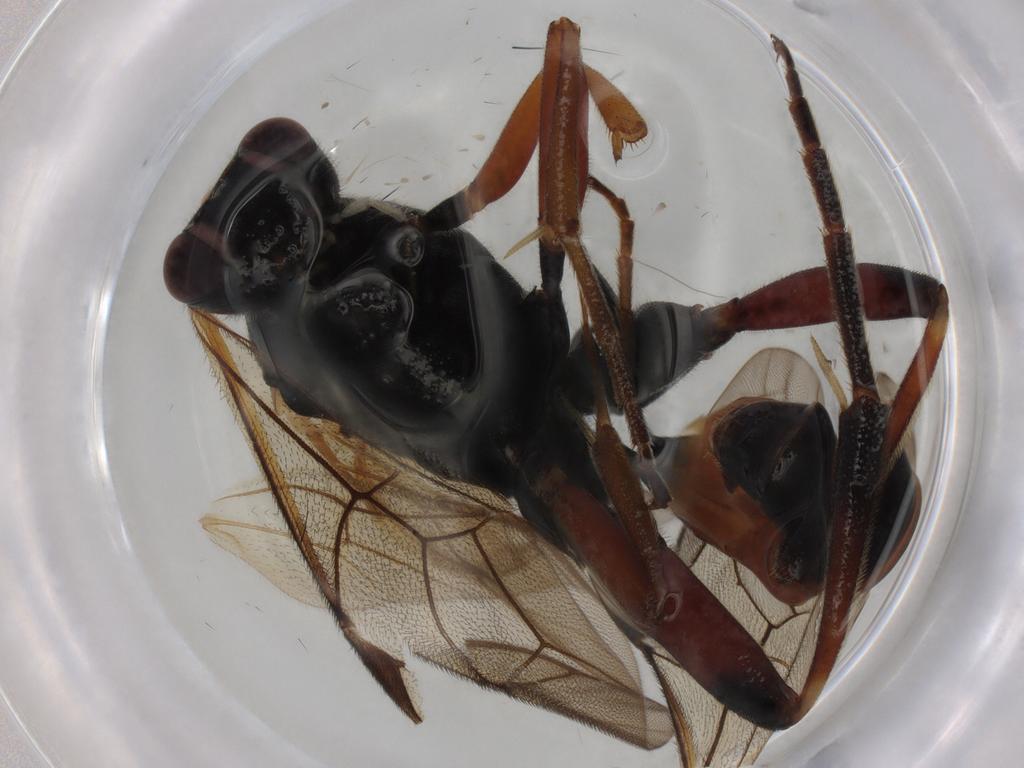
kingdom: Animalia
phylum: Arthropoda
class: Insecta
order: Hymenoptera
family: Ichneumonidae
